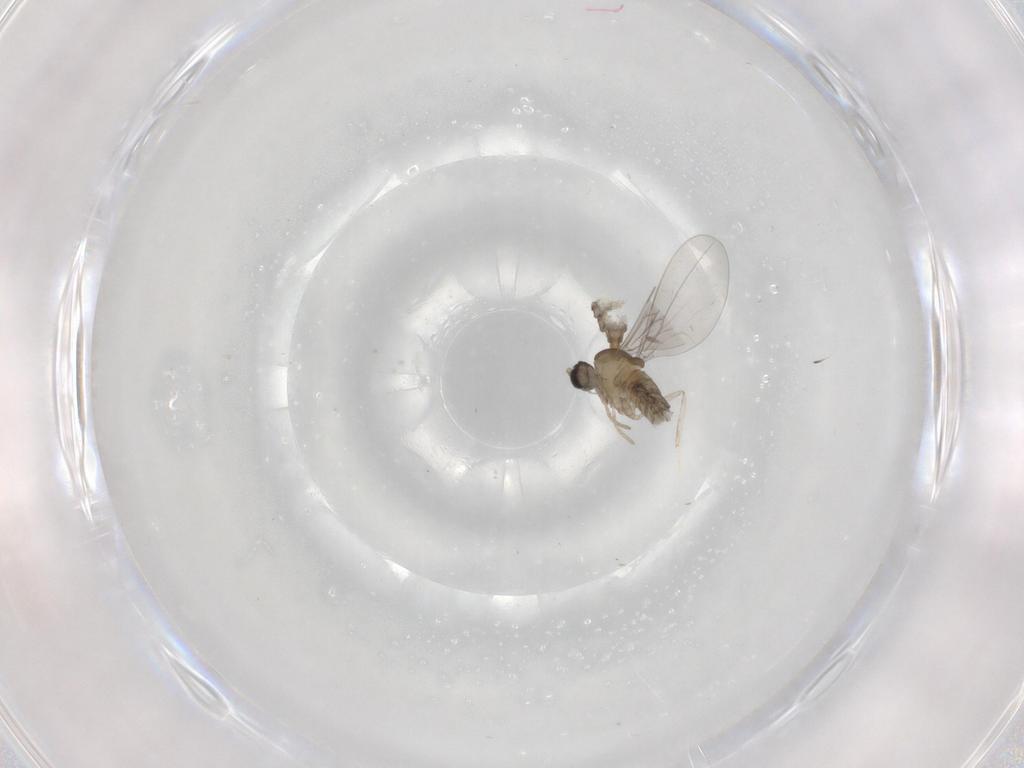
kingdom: Animalia
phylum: Arthropoda
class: Insecta
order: Diptera
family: Cecidomyiidae
